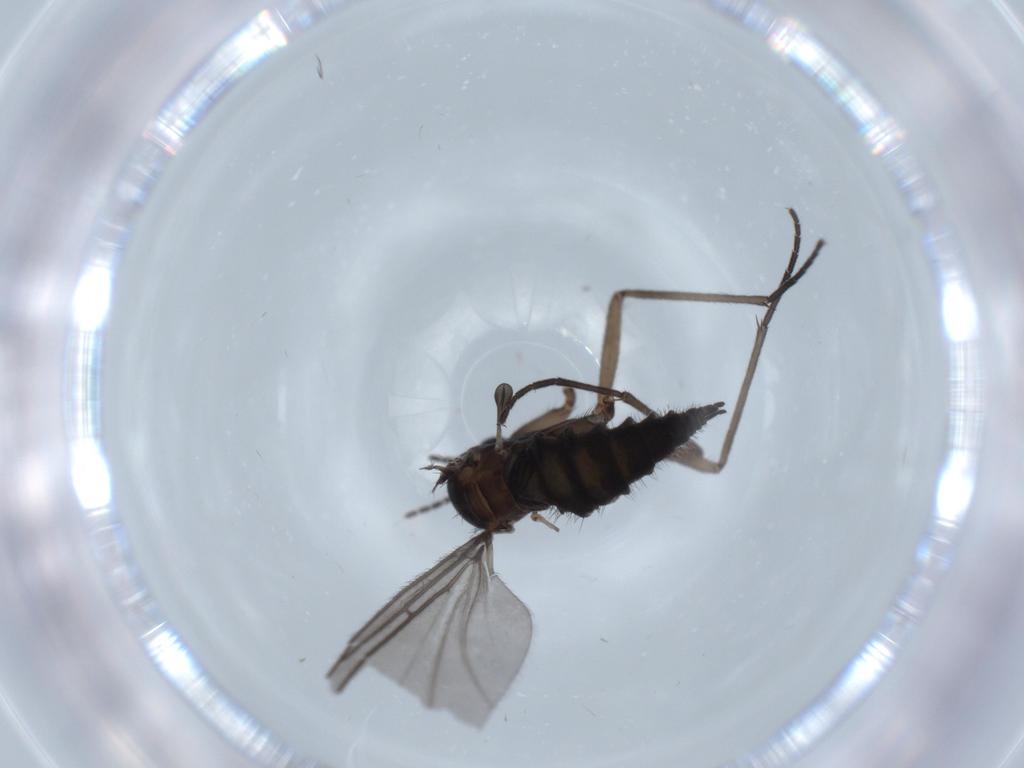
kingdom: Animalia
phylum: Arthropoda
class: Insecta
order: Diptera
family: Sciaridae
